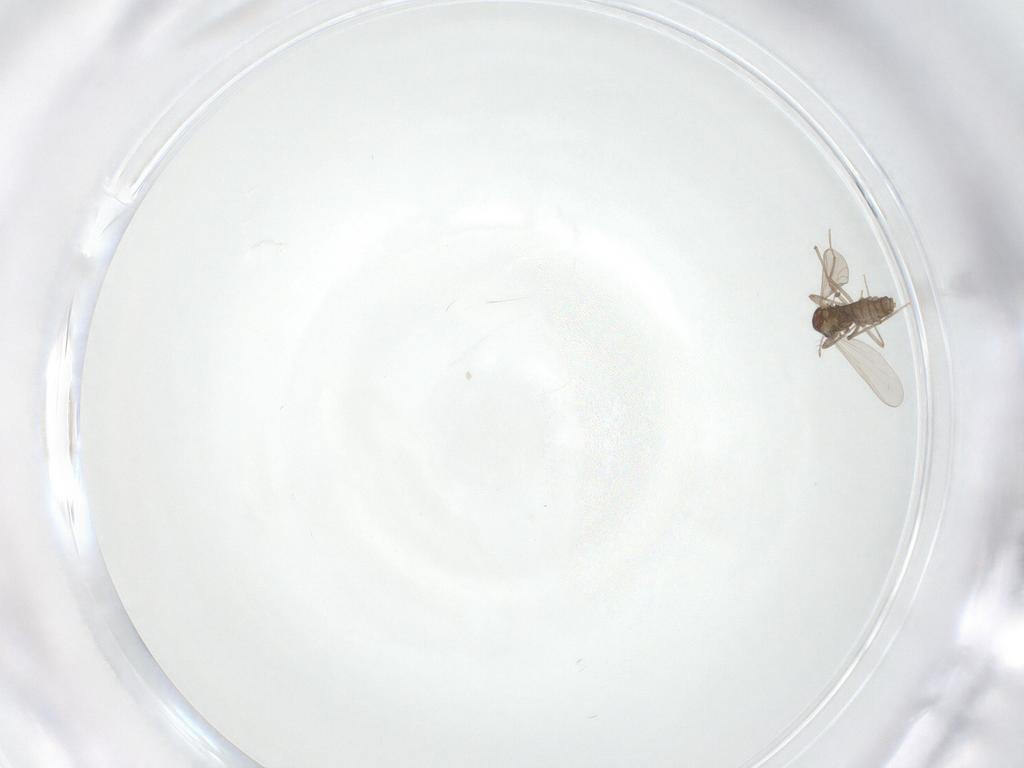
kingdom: Animalia
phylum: Arthropoda
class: Insecta
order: Diptera
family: Chironomidae
